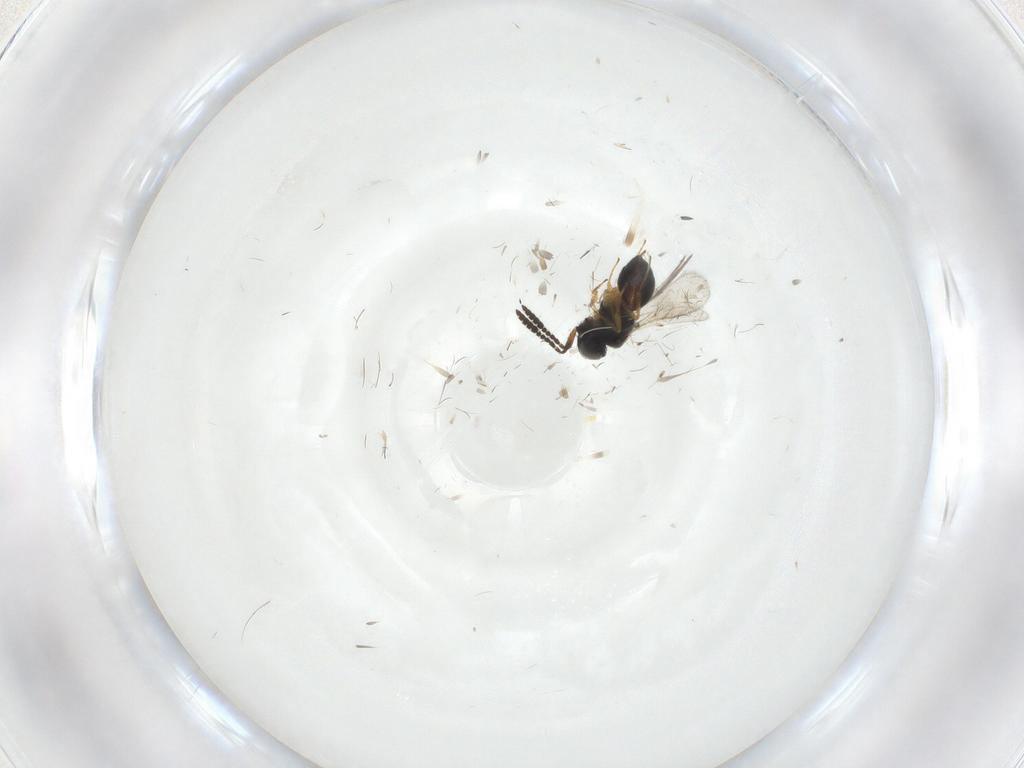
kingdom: Animalia
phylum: Arthropoda
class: Insecta
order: Hymenoptera
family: Scelionidae
